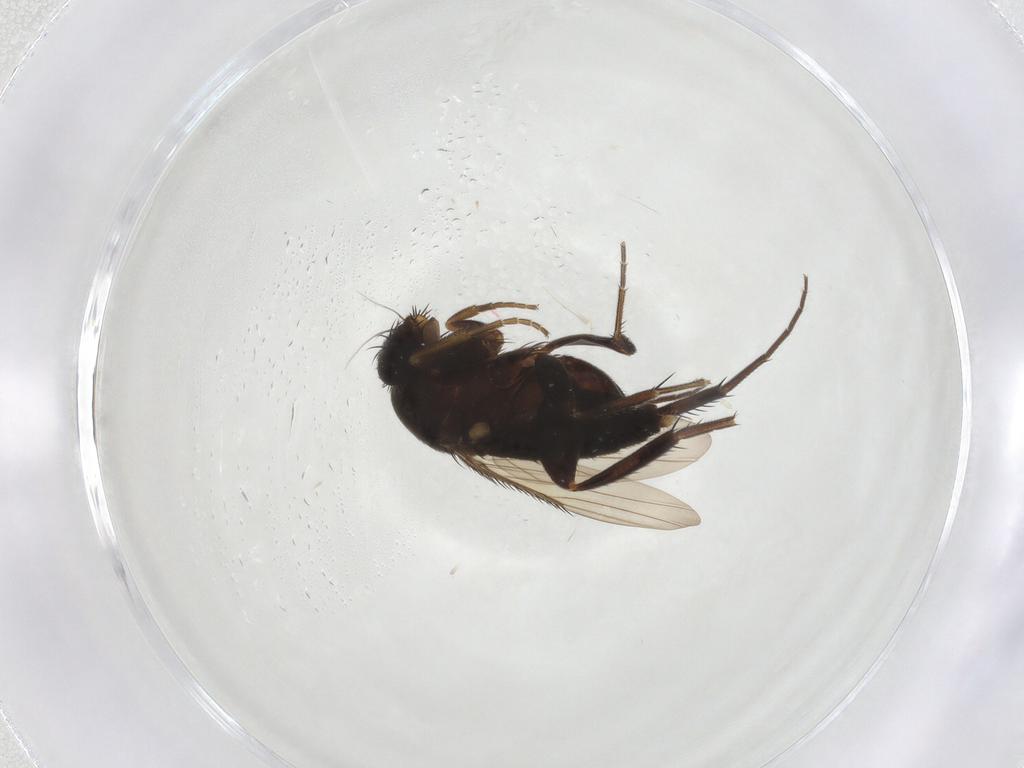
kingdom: Animalia
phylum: Arthropoda
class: Insecta
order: Diptera
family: Phoridae
